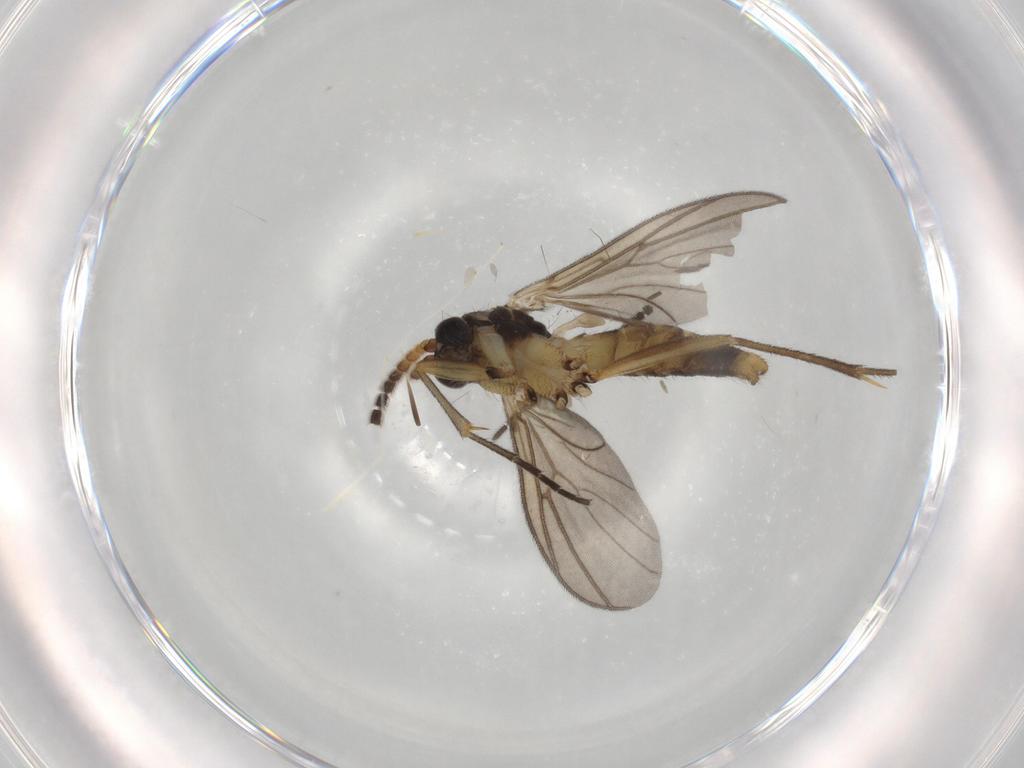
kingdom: Animalia
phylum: Arthropoda
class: Insecta
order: Diptera
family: Mycetophilidae
